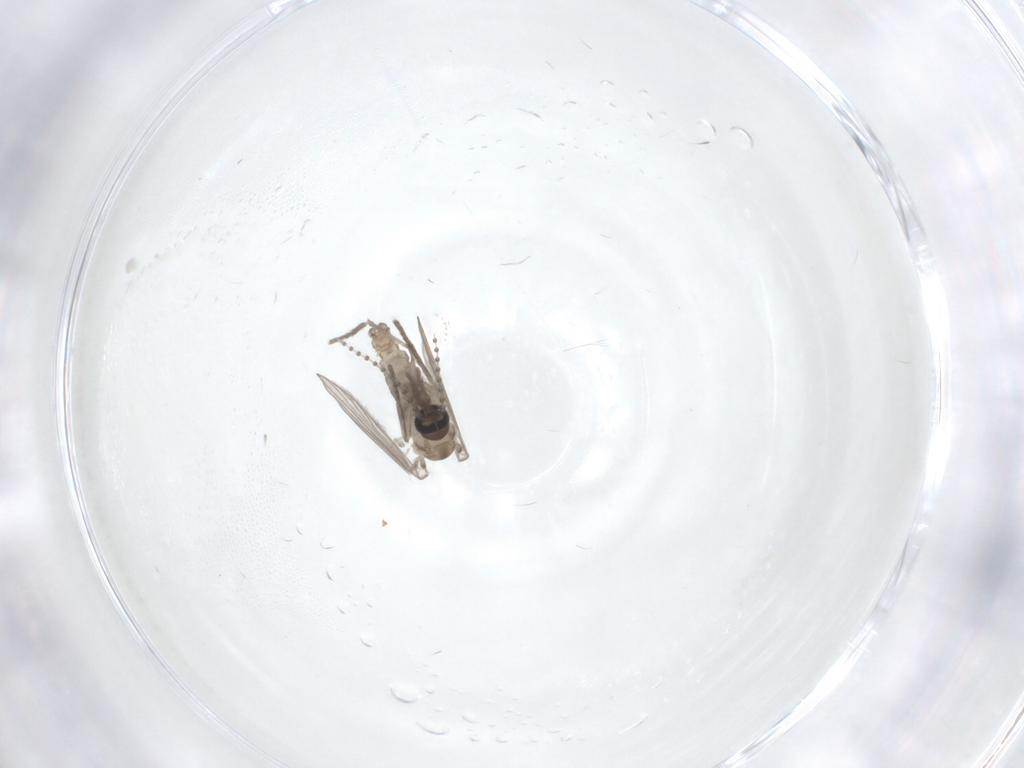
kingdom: Animalia
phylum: Arthropoda
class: Insecta
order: Diptera
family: Psychodidae
